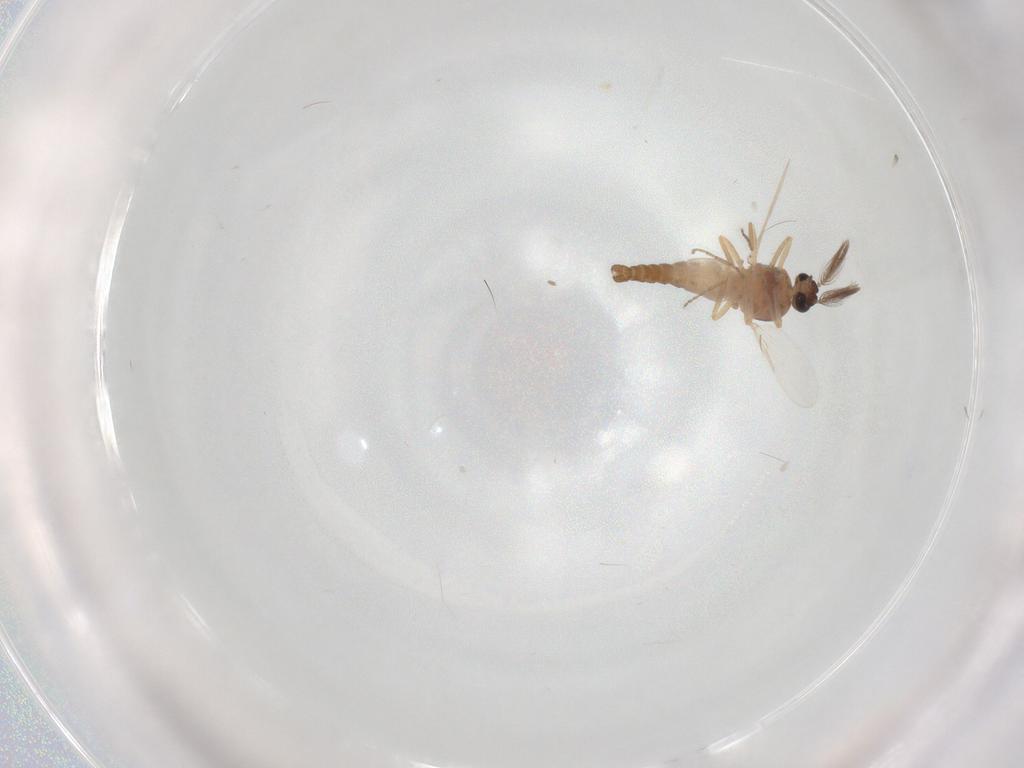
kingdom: Animalia
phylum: Arthropoda
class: Insecta
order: Diptera
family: Ceratopogonidae
